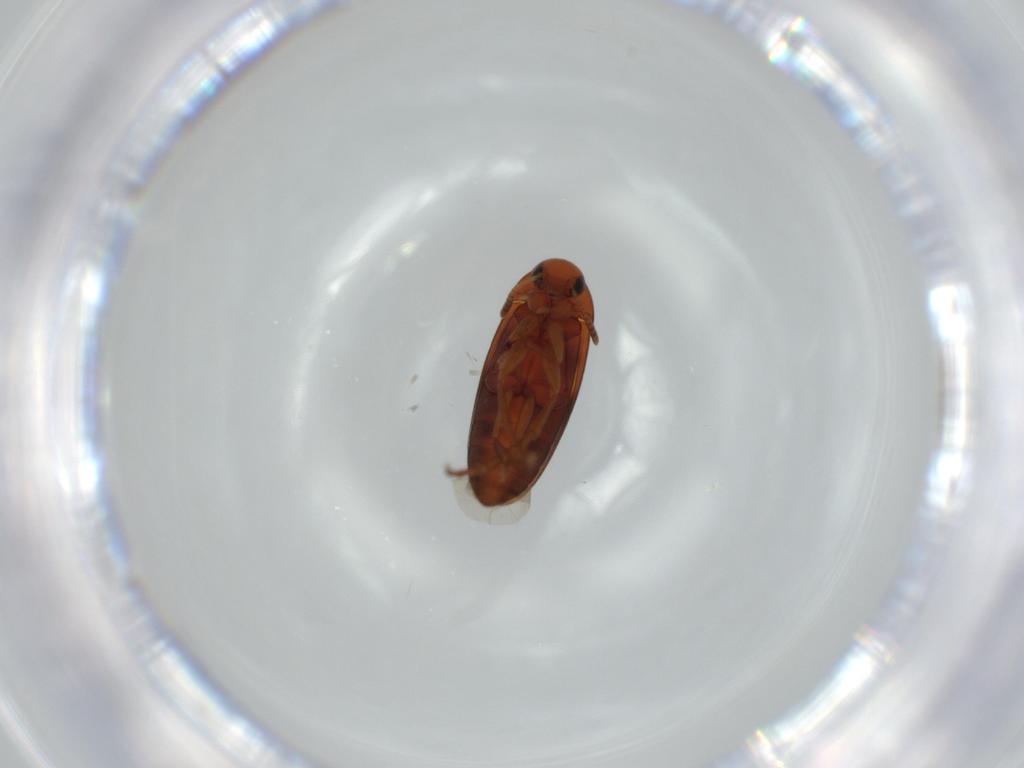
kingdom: Animalia
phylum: Arthropoda
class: Insecta
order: Coleoptera
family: Scraptiidae
